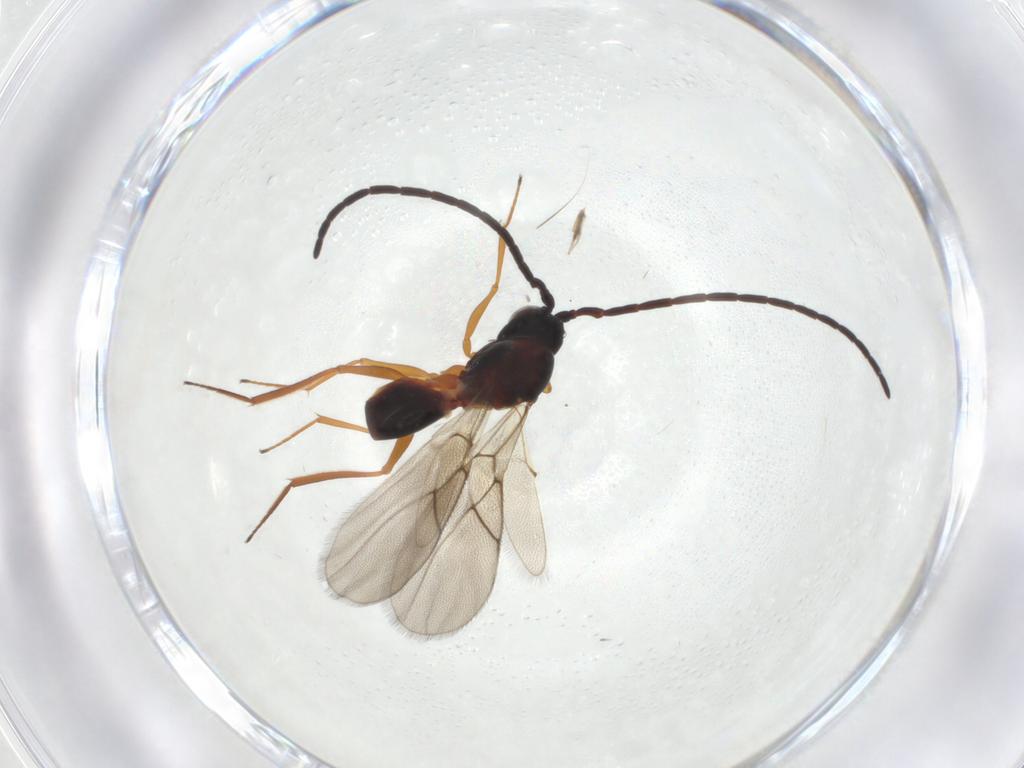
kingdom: Animalia
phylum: Arthropoda
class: Insecta
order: Hymenoptera
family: Figitidae
